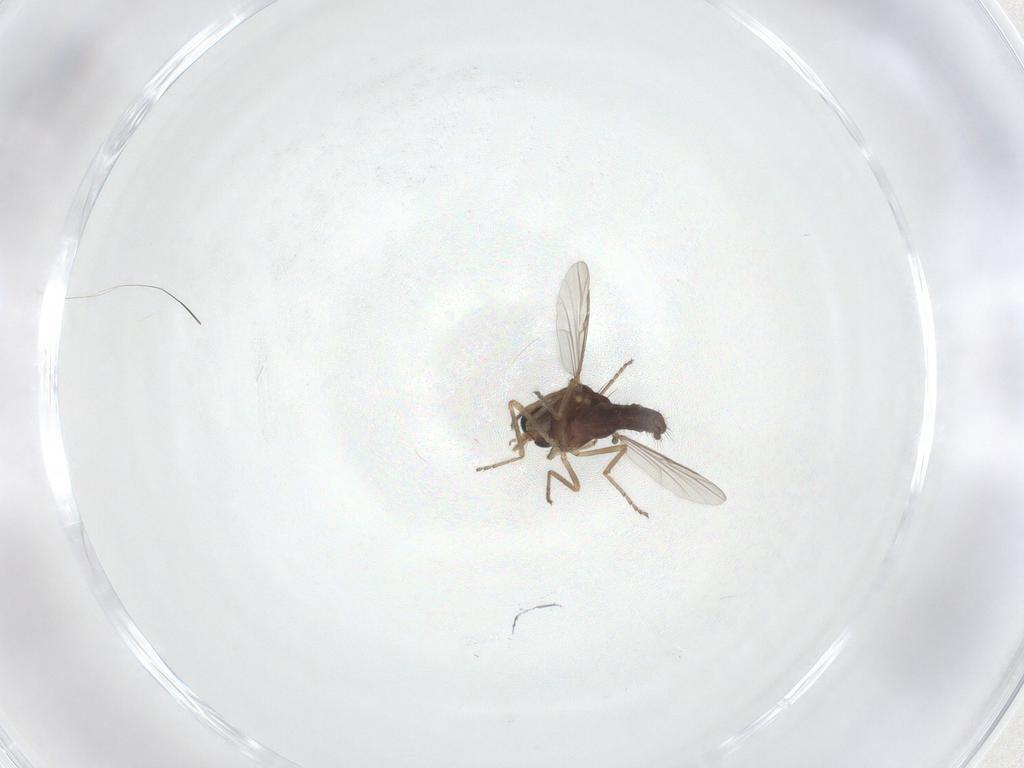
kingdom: Animalia
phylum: Arthropoda
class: Insecta
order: Diptera
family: Ceratopogonidae
